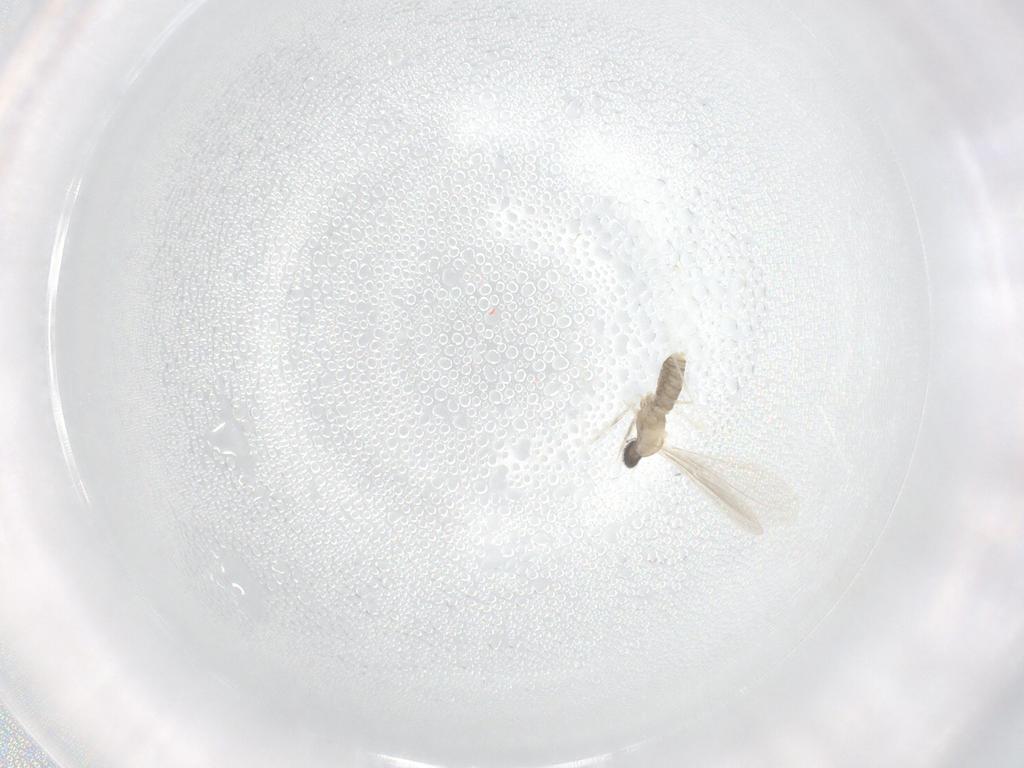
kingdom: Animalia
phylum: Arthropoda
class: Insecta
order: Diptera
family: Cecidomyiidae
